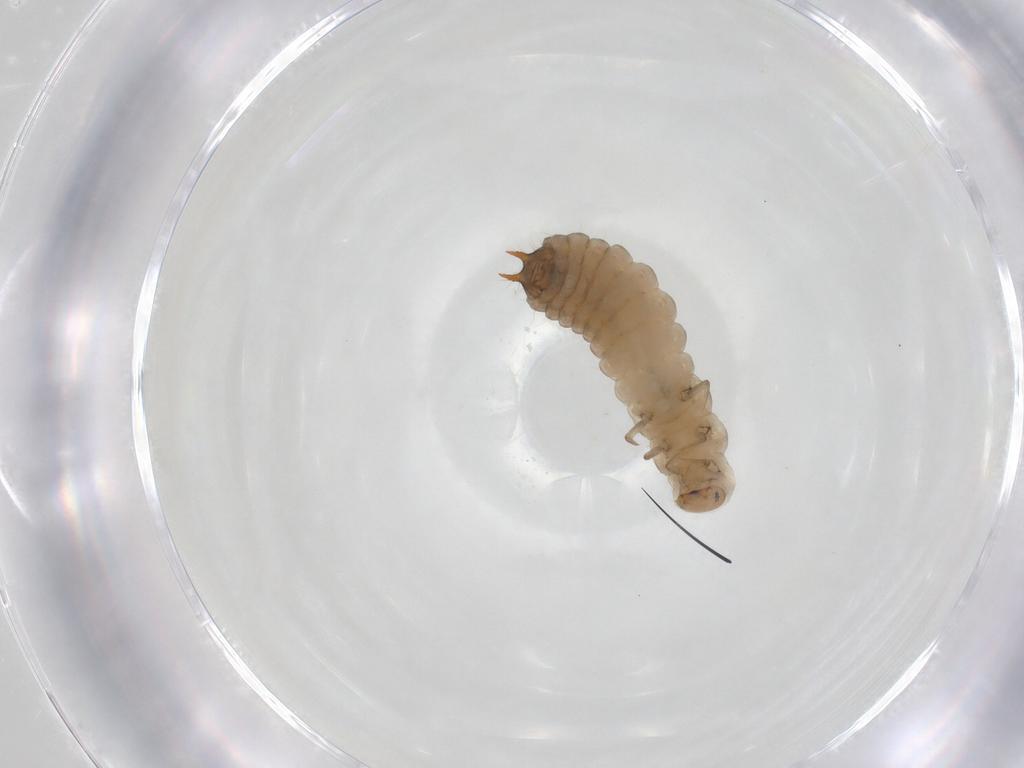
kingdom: Animalia
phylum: Arthropoda
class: Insecta
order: Coleoptera
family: Melyridae
